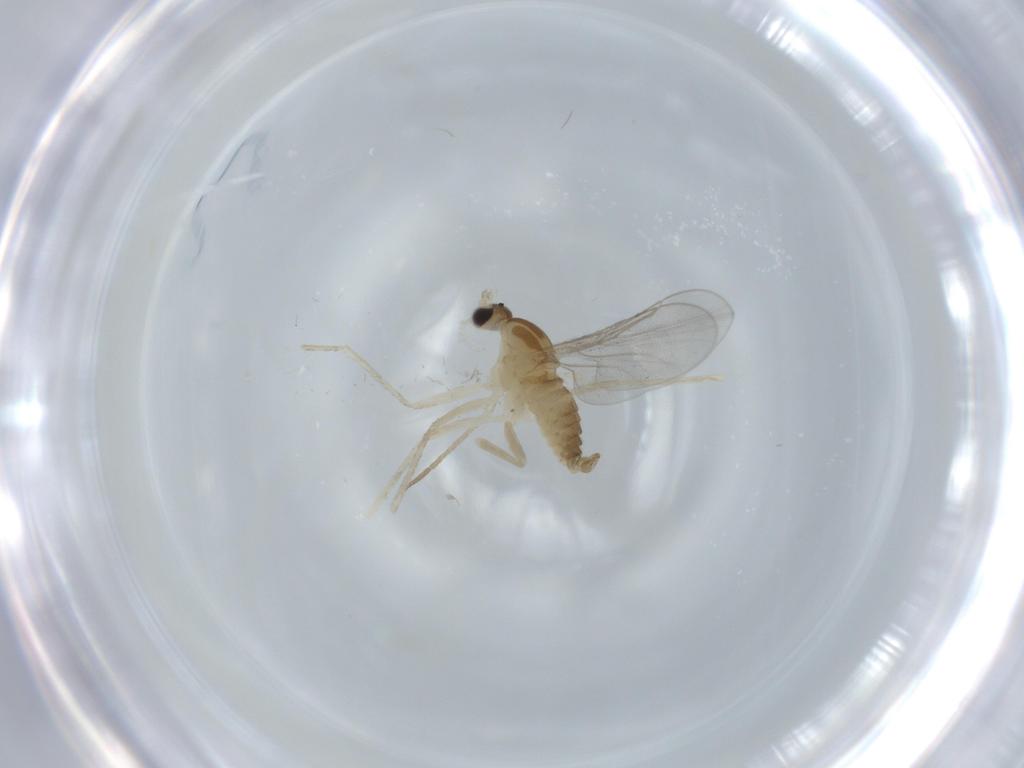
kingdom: Animalia
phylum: Arthropoda
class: Insecta
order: Diptera
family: Cecidomyiidae
